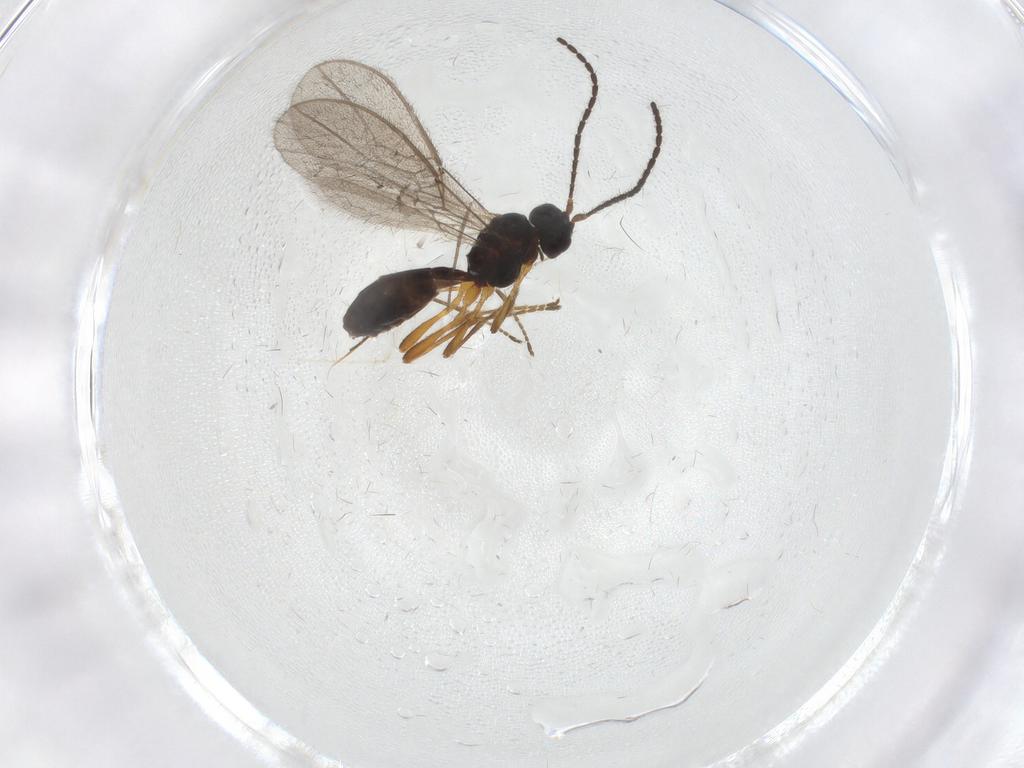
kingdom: Animalia
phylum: Arthropoda
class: Insecta
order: Hymenoptera
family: Braconidae
